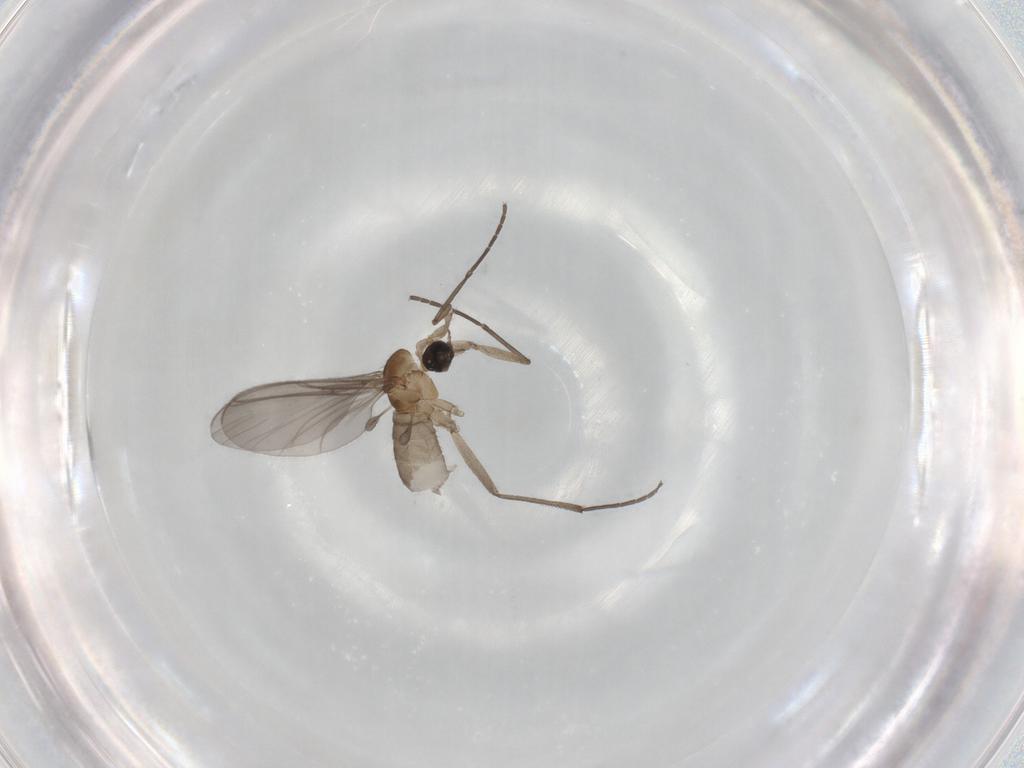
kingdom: Animalia
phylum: Arthropoda
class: Insecta
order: Diptera
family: Sciaridae
